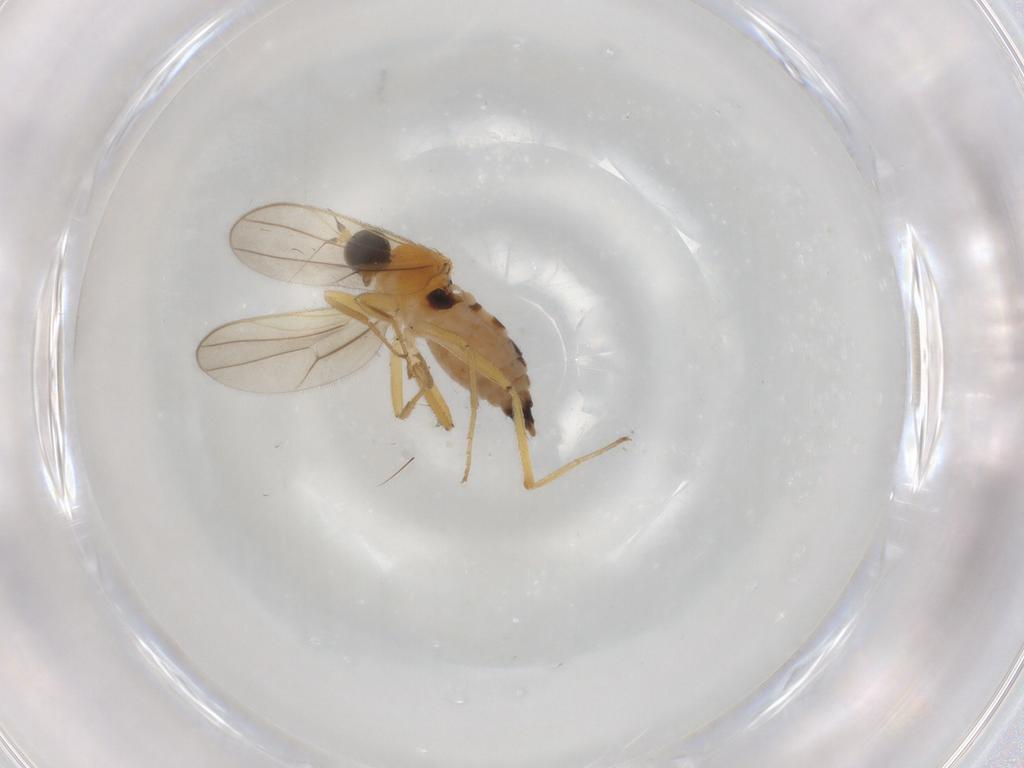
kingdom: Animalia
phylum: Arthropoda
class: Insecta
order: Diptera
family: Hybotidae
